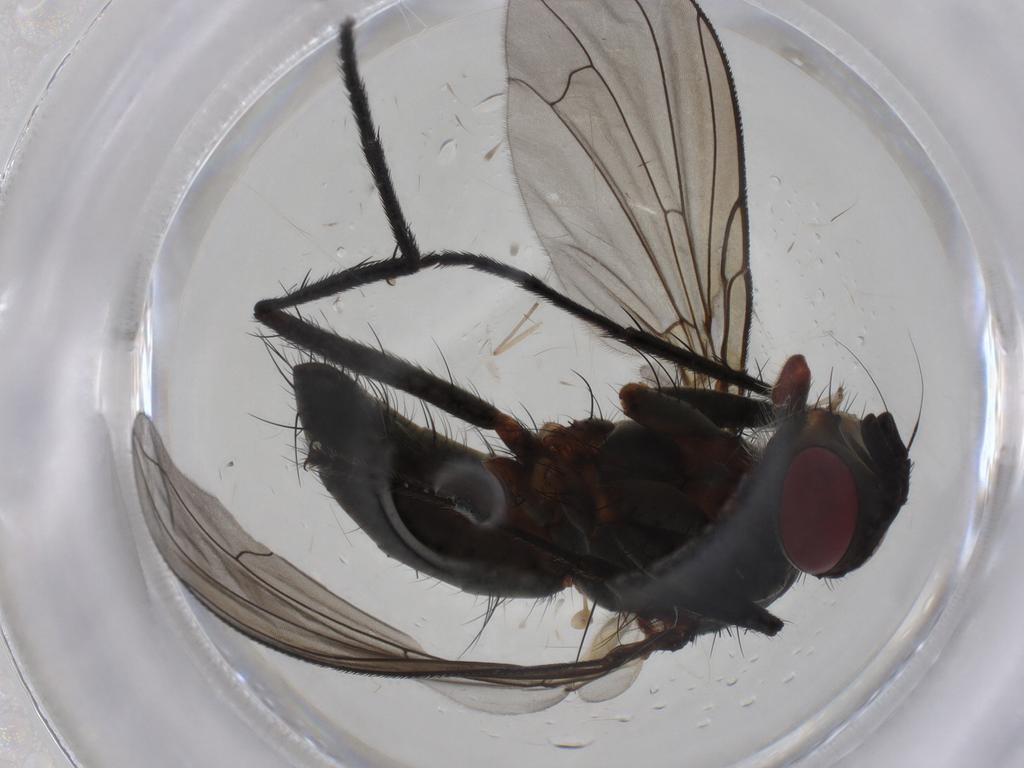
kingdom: Animalia
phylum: Arthropoda
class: Insecta
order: Diptera
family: Tachinidae
